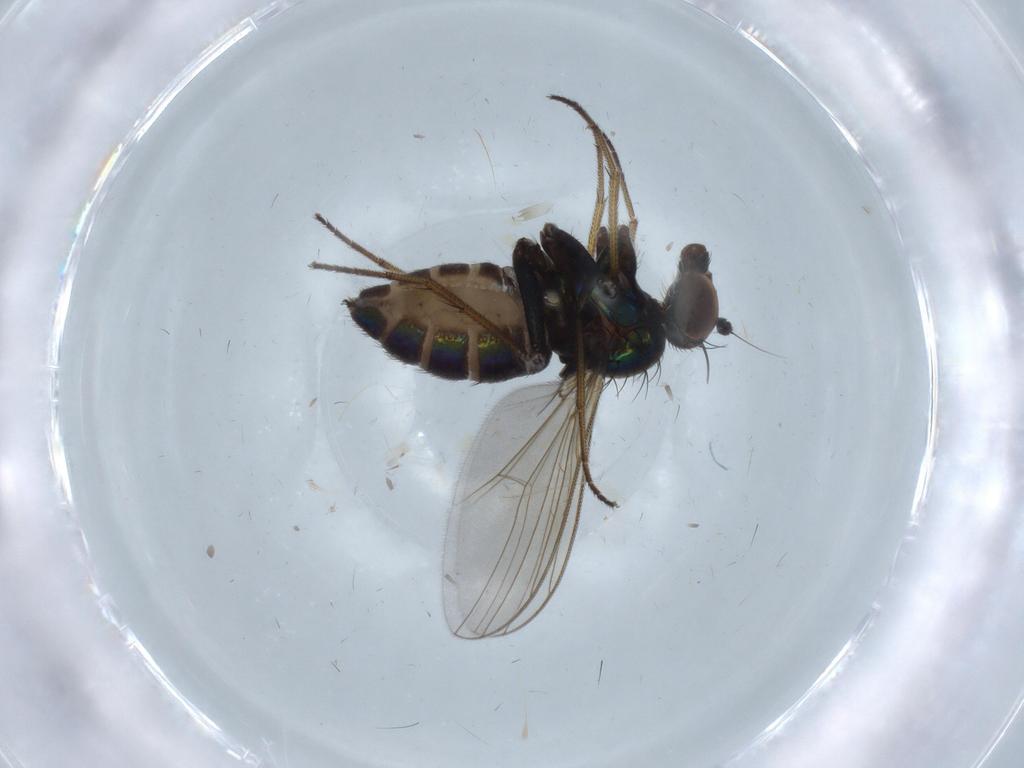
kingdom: Animalia
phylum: Arthropoda
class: Insecta
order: Diptera
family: Dolichopodidae
